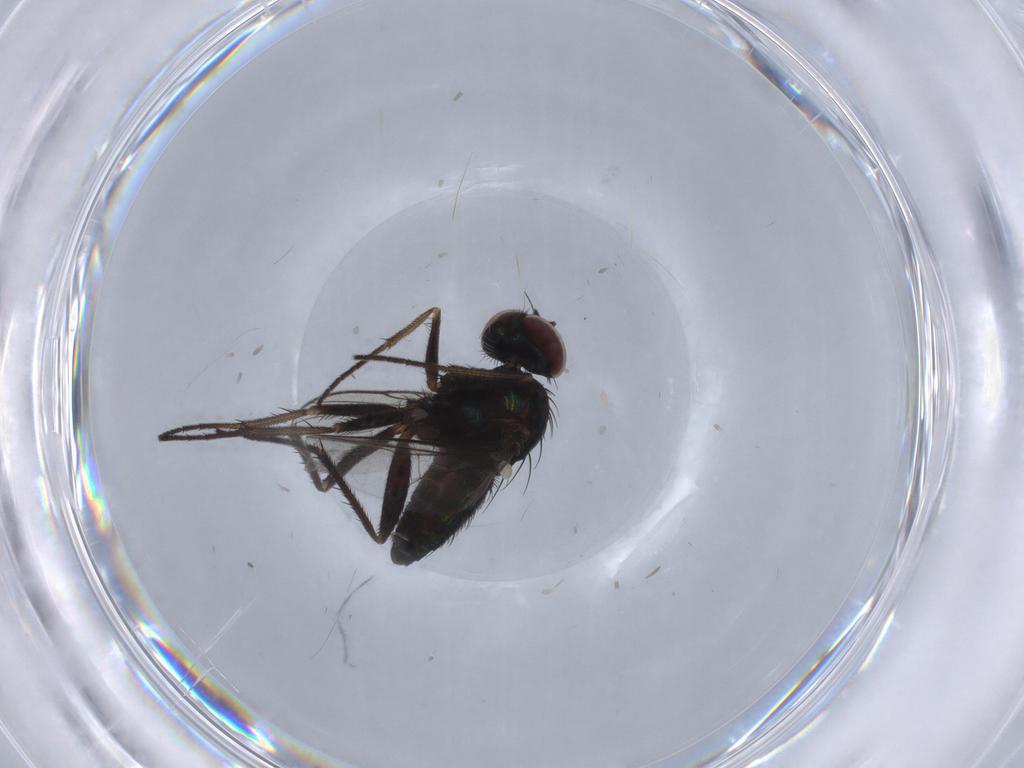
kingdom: Animalia
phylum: Arthropoda
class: Insecta
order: Diptera
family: Dolichopodidae
